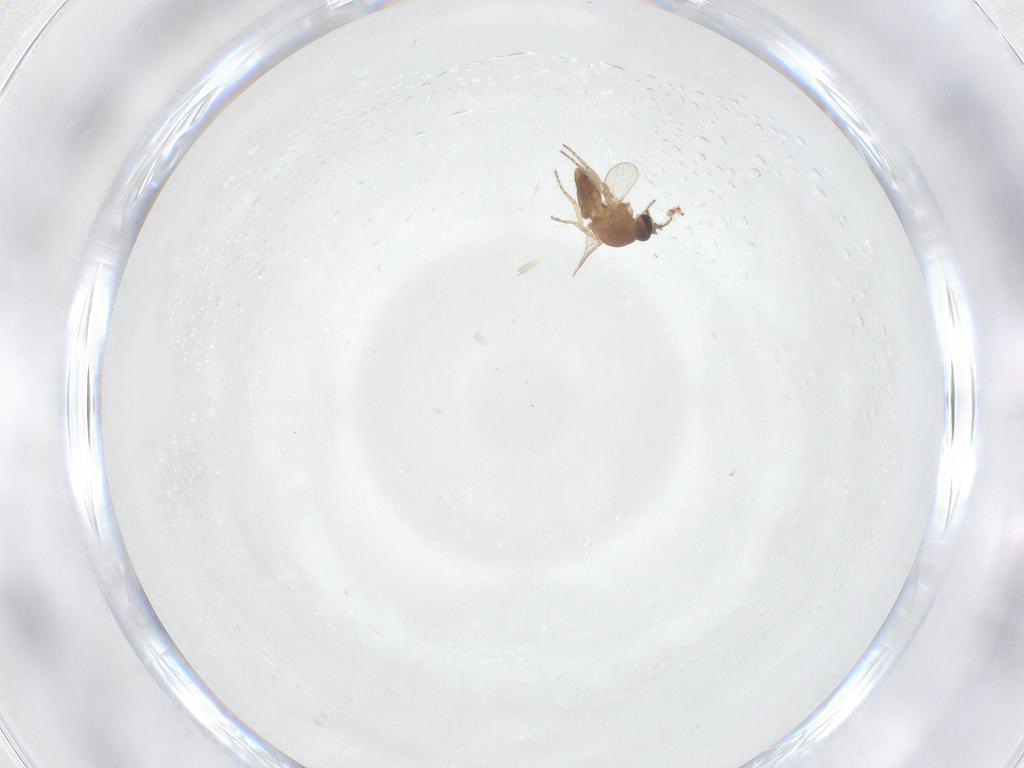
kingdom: Animalia
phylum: Arthropoda
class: Insecta
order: Diptera
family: Ceratopogonidae
